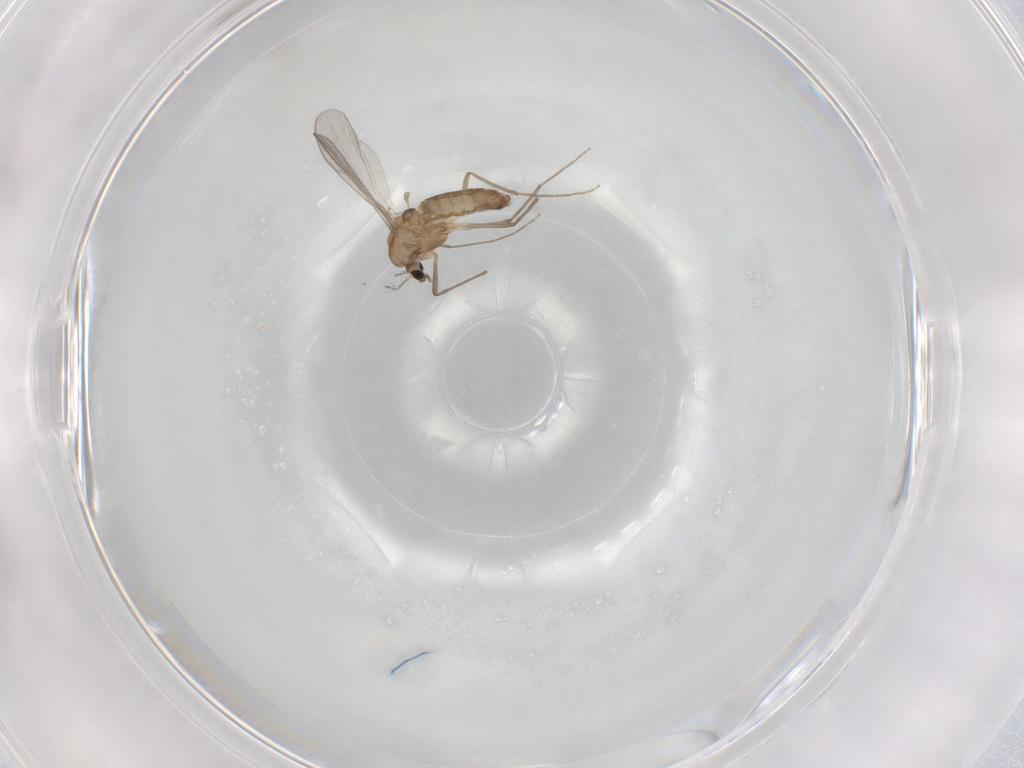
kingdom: Animalia
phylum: Arthropoda
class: Insecta
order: Diptera
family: Chironomidae
